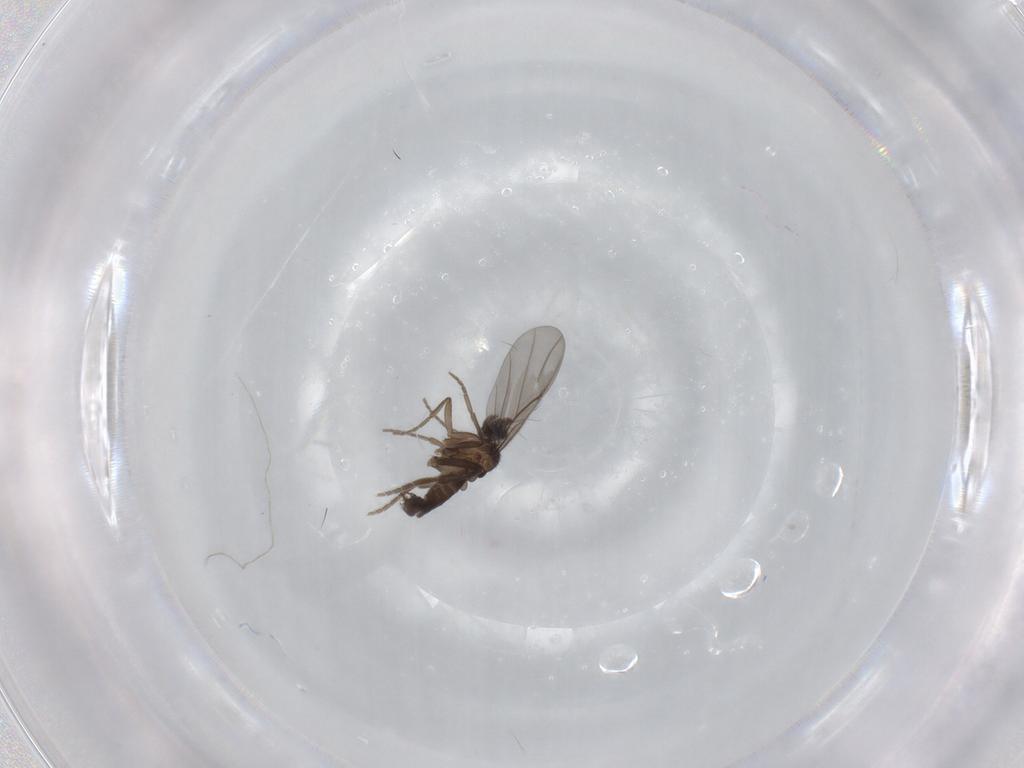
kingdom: Animalia
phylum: Arthropoda
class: Insecta
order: Diptera
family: Phoridae
